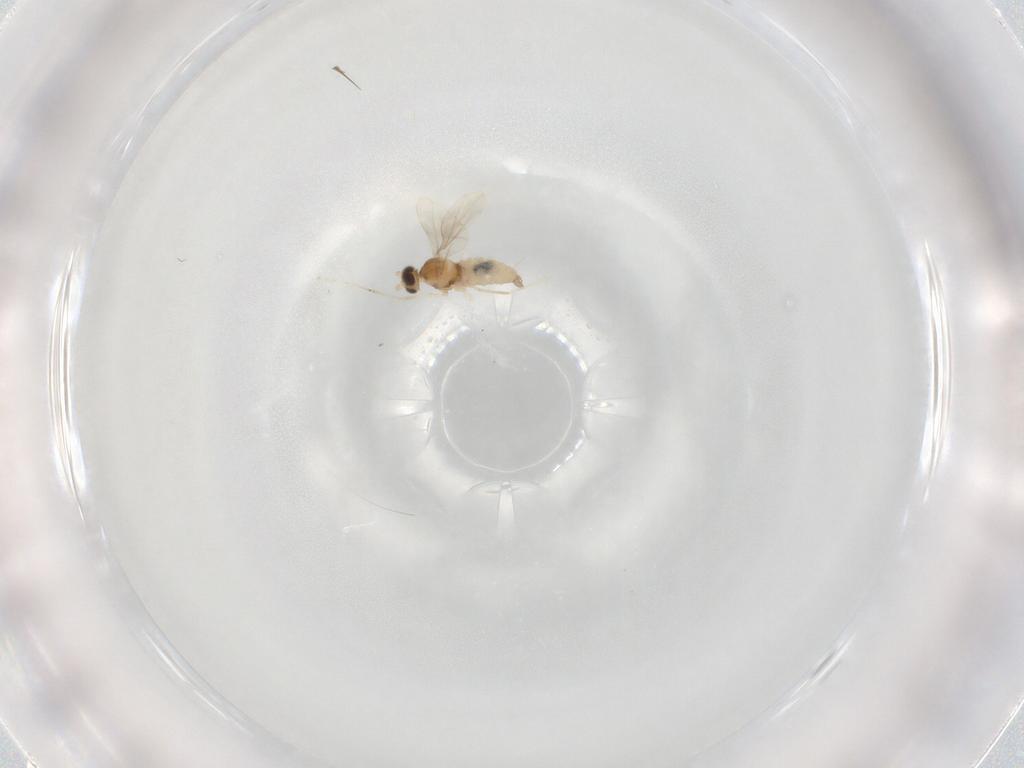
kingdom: Animalia
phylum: Arthropoda
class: Insecta
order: Diptera
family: Cecidomyiidae
